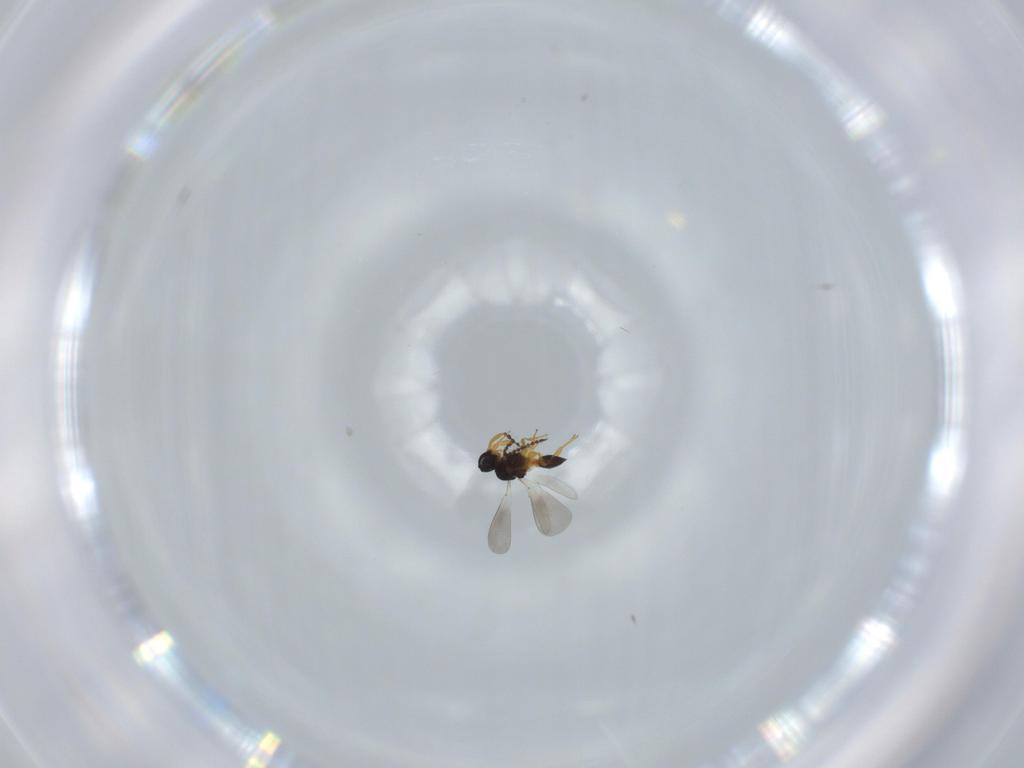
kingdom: Animalia
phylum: Arthropoda
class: Insecta
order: Hymenoptera
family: Platygastridae
